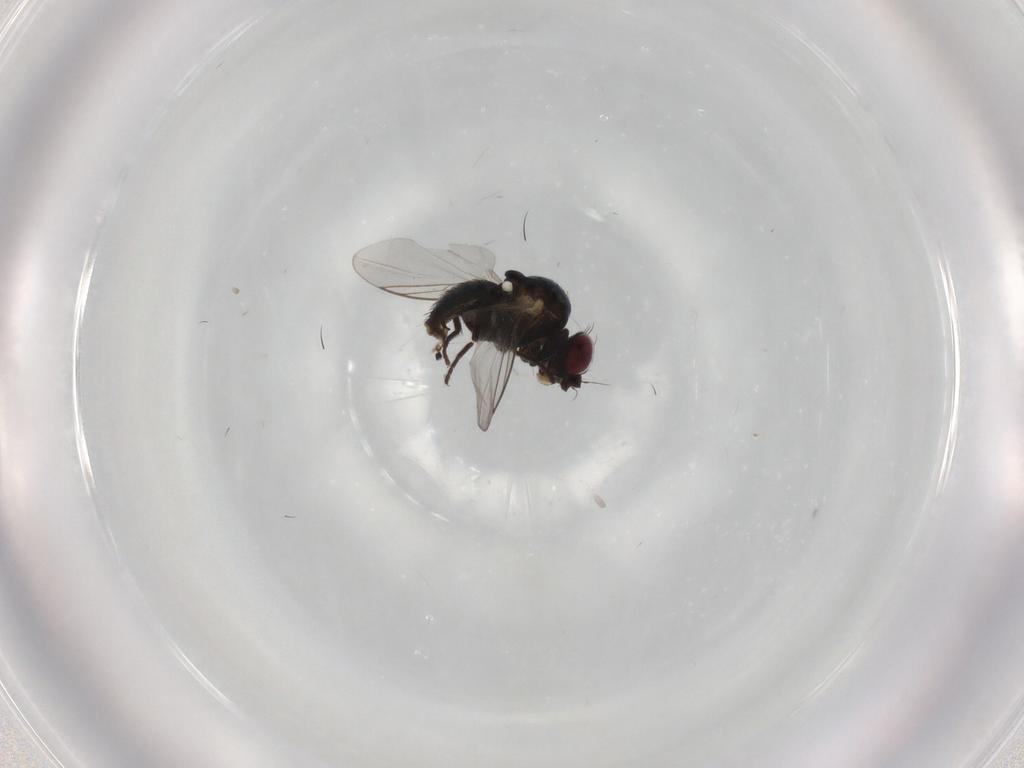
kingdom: Animalia
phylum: Arthropoda
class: Insecta
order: Diptera
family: Agromyzidae
